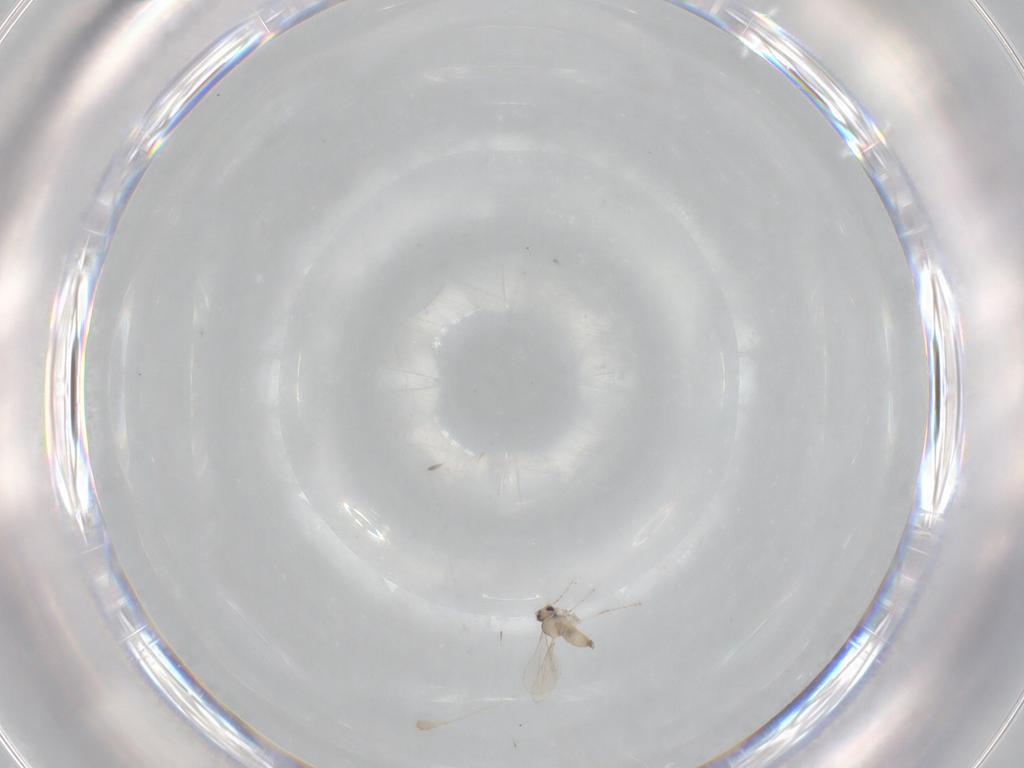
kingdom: Animalia
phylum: Arthropoda
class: Insecta
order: Diptera
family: Cecidomyiidae
